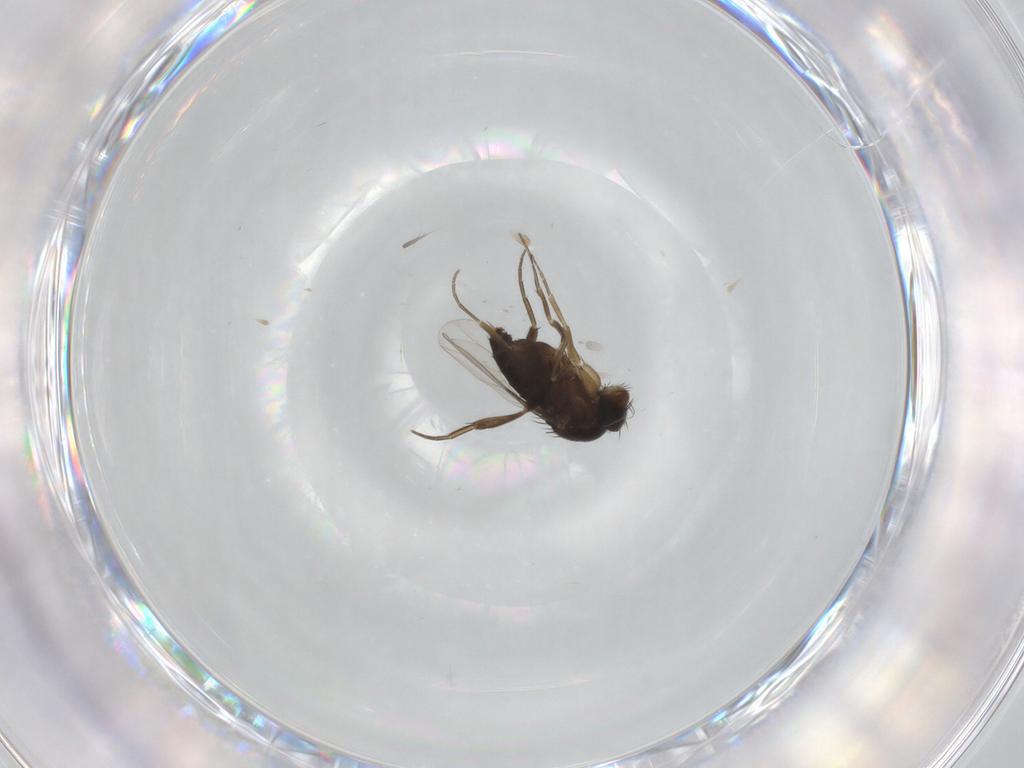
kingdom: Animalia
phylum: Arthropoda
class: Insecta
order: Diptera
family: Phoridae
